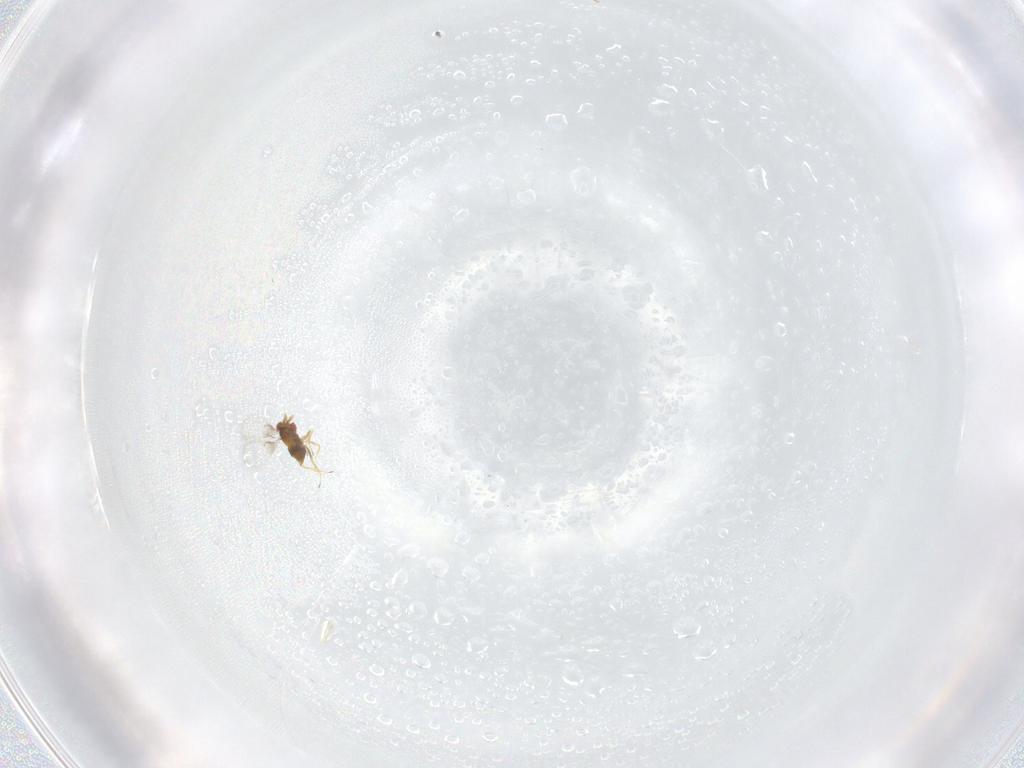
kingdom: Animalia
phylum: Arthropoda
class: Insecta
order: Hymenoptera
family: Trichogrammatidae
